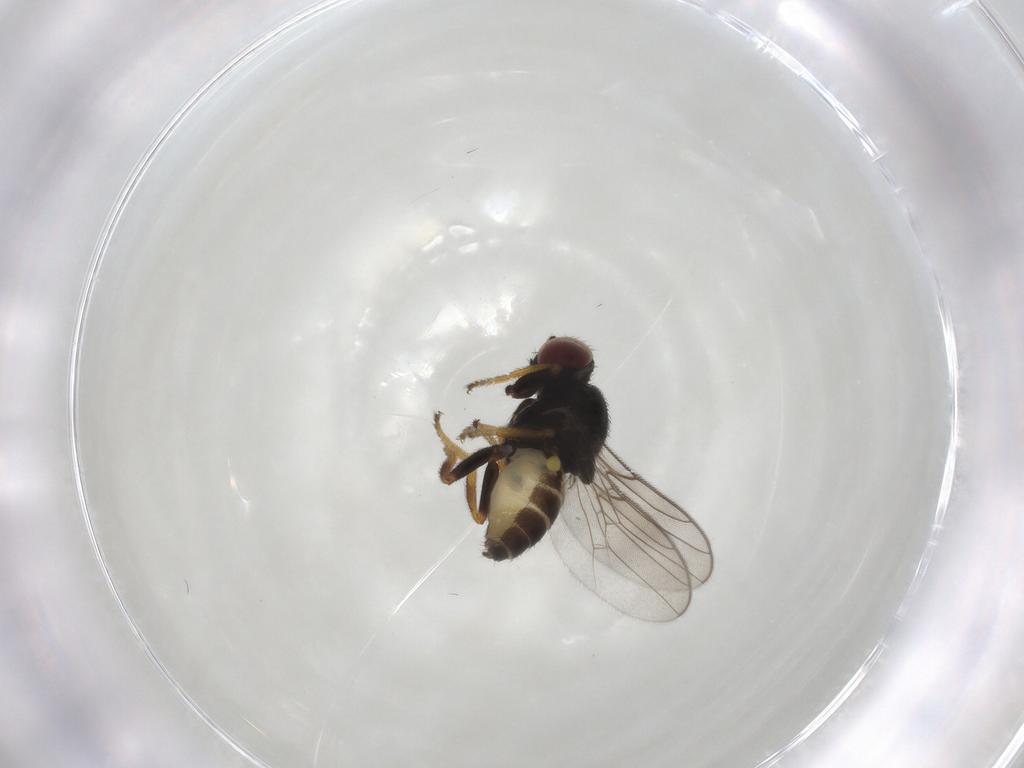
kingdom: Animalia
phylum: Arthropoda
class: Insecta
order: Diptera
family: Chloropidae
